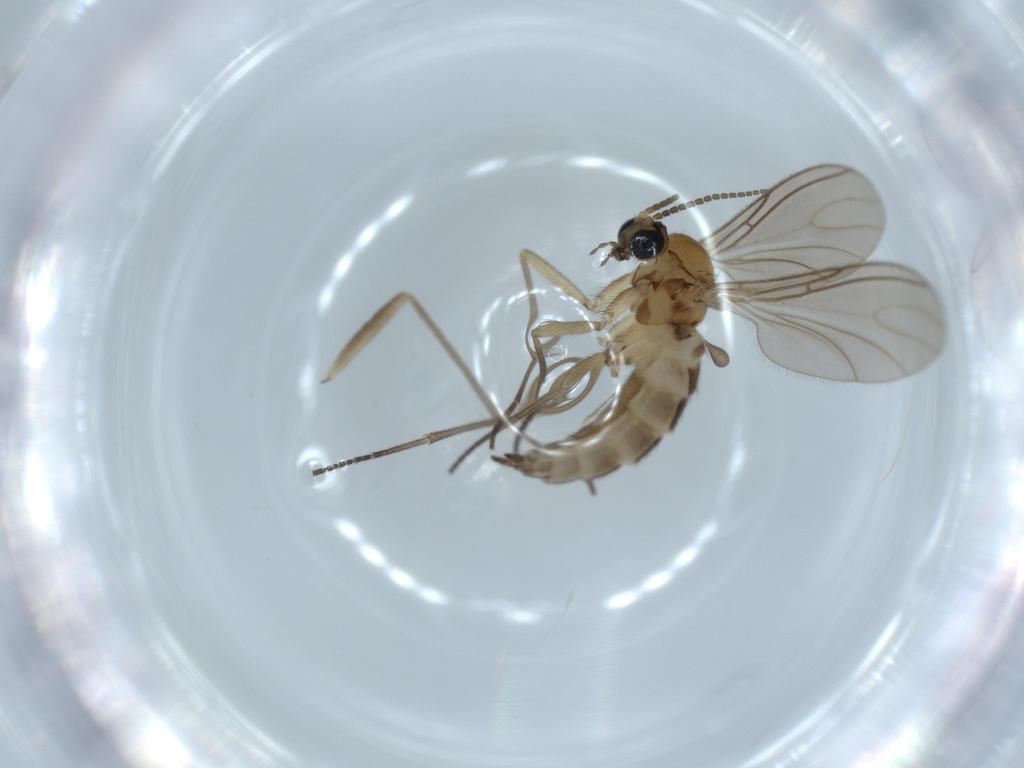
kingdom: Animalia
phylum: Arthropoda
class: Insecta
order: Diptera
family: Sciaridae
